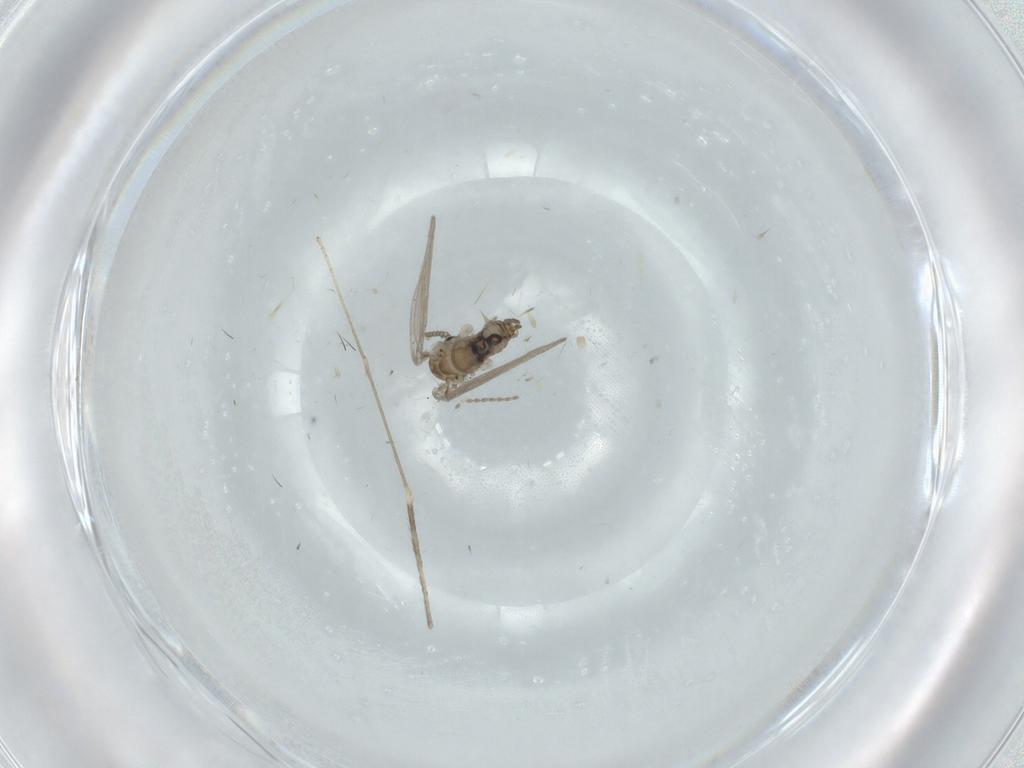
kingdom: Animalia
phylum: Arthropoda
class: Insecta
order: Diptera
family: Psychodidae
